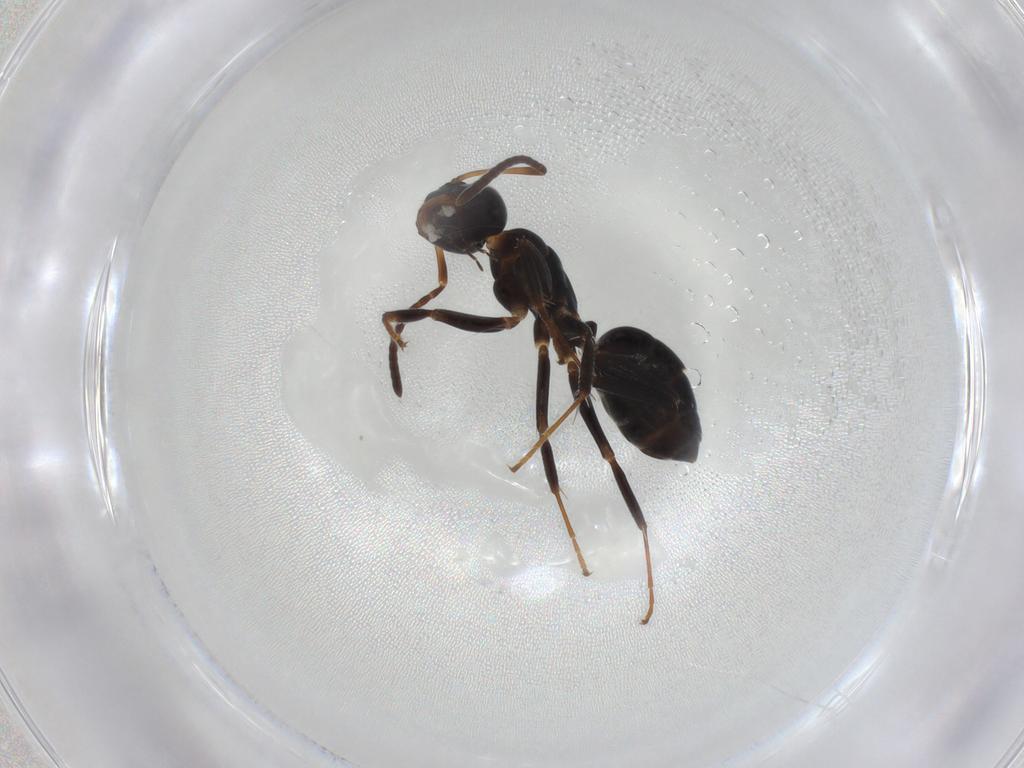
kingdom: Animalia
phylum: Arthropoda
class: Insecta
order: Hymenoptera
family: Formicidae
